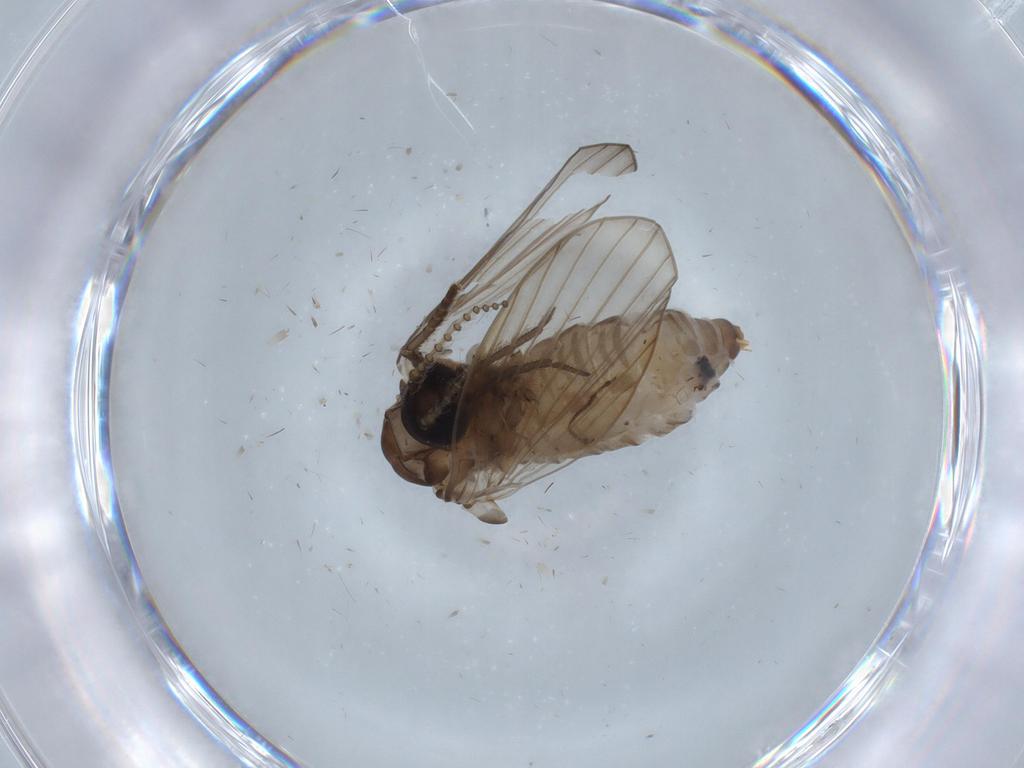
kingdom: Animalia
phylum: Arthropoda
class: Insecta
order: Diptera
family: Psychodidae
